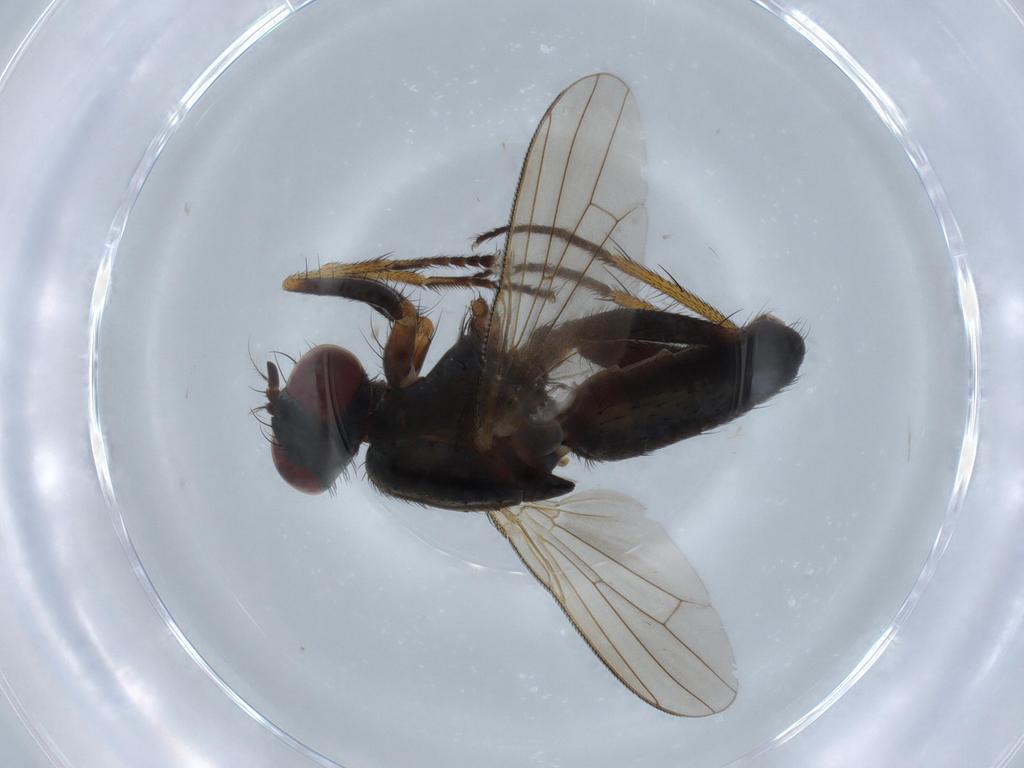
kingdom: Animalia
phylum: Arthropoda
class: Insecta
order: Diptera
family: Muscidae
